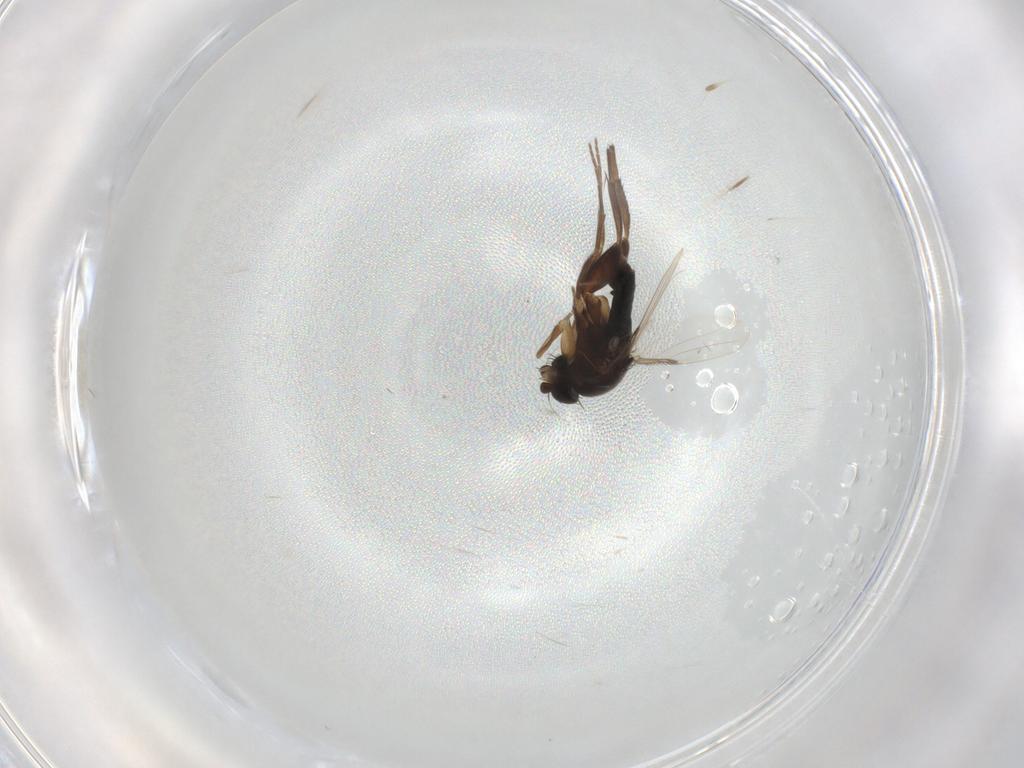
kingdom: Animalia
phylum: Arthropoda
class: Insecta
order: Diptera
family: Phoridae
